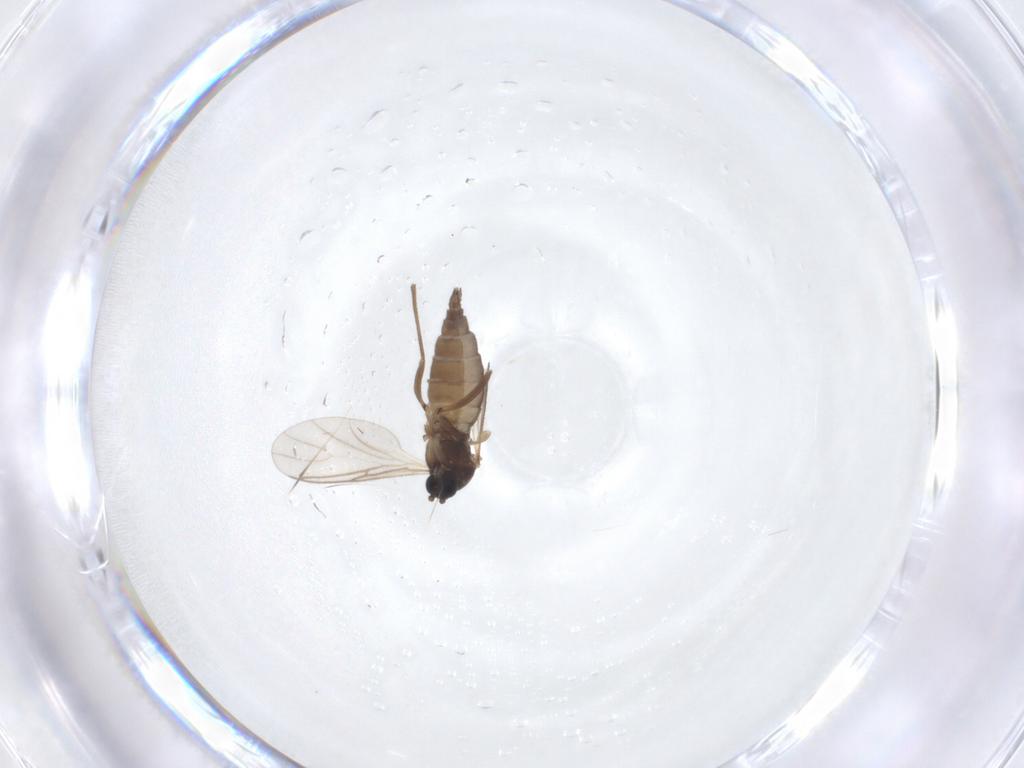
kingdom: Animalia
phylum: Arthropoda
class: Insecta
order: Diptera
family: Sciaridae
